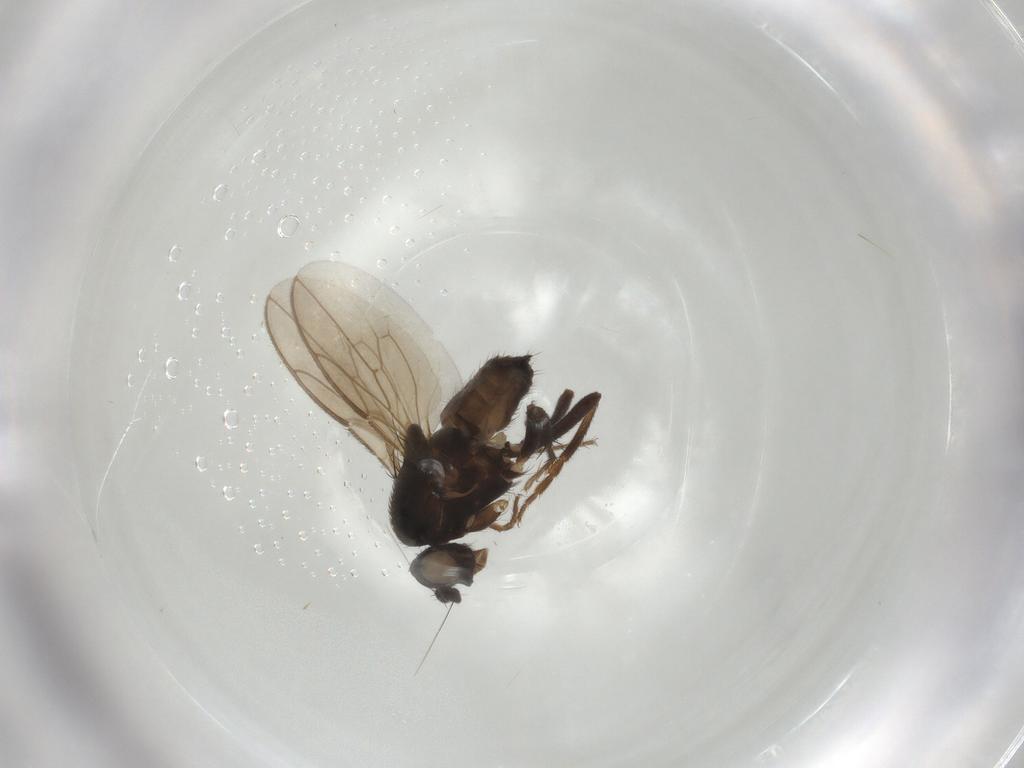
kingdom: Animalia
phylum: Arthropoda
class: Insecta
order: Diptera
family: Sphaeroceridae
